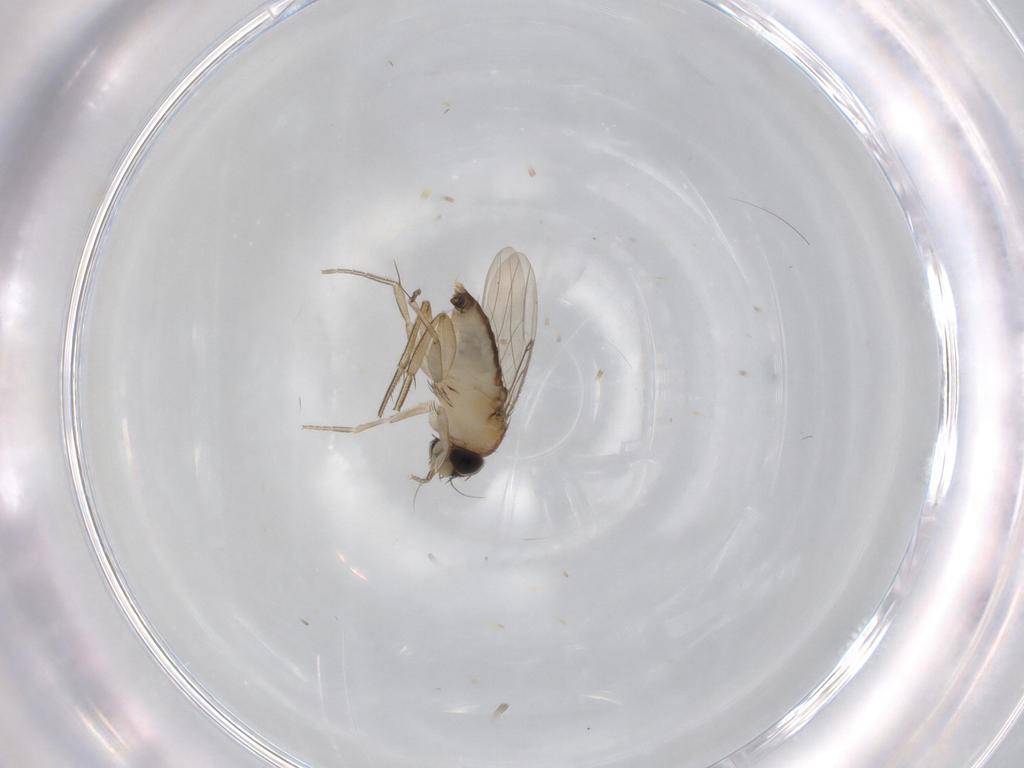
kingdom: Animalia
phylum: Arthropoda
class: Insecta
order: Diptera
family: Phoridae
